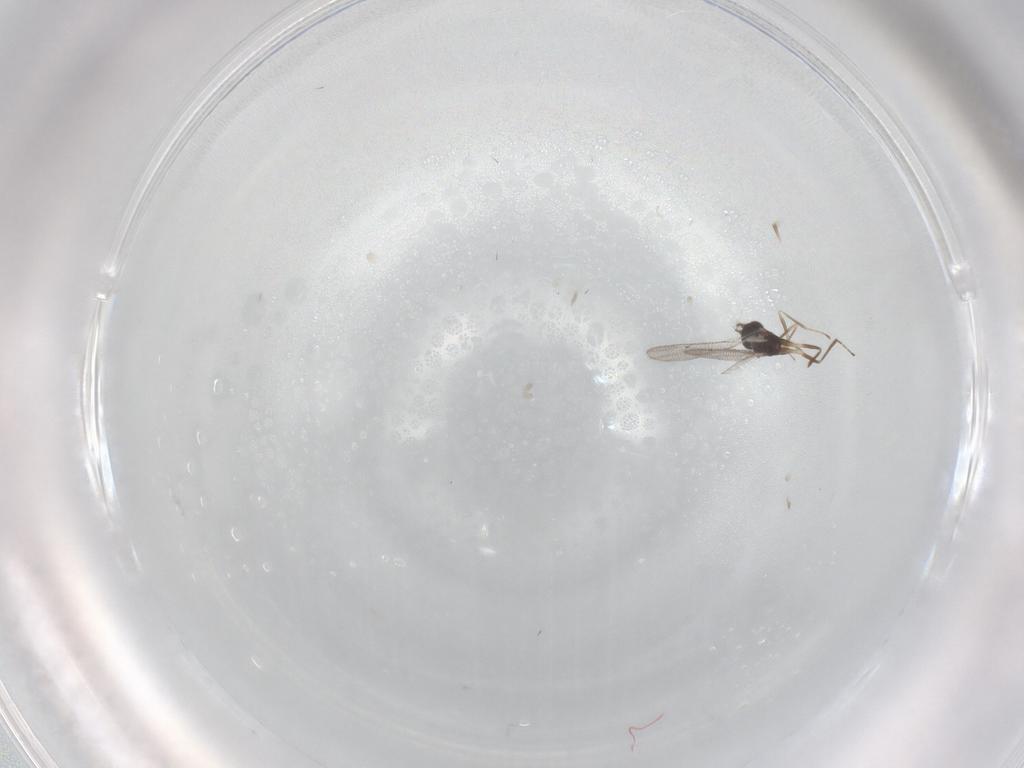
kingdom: Animalia
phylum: Arthropoda
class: Insecta
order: Hymenoptera
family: Eulophidae
